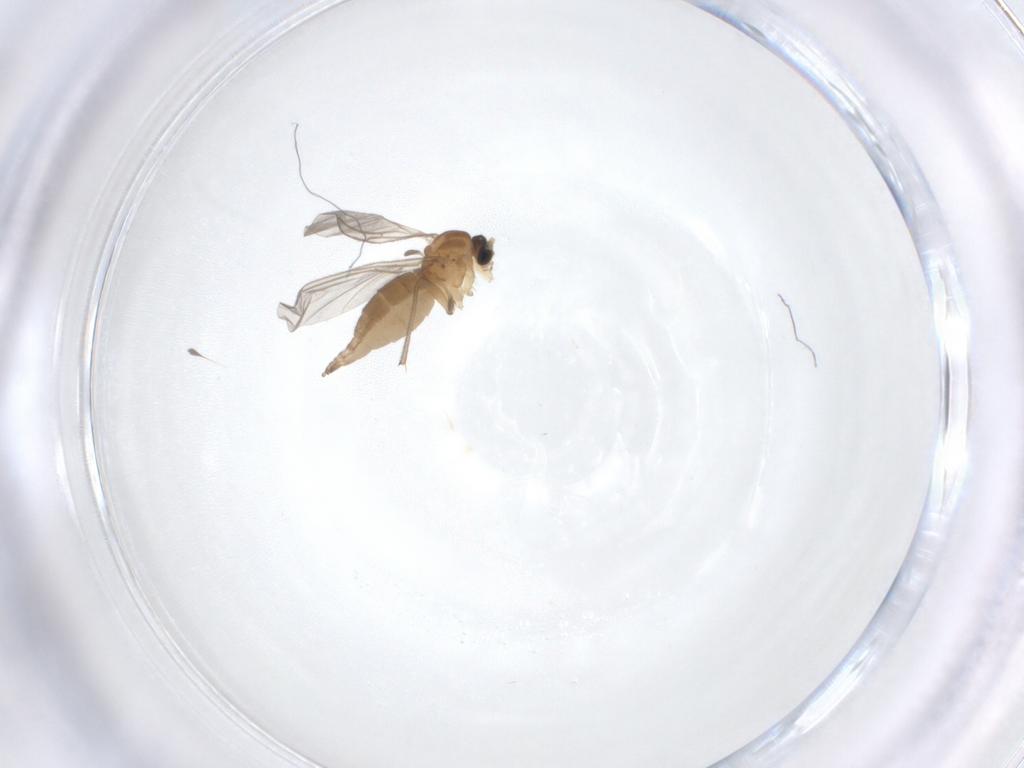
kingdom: Animalia
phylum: Arthropoda
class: Insecta
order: Diptera
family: Sciaridae
